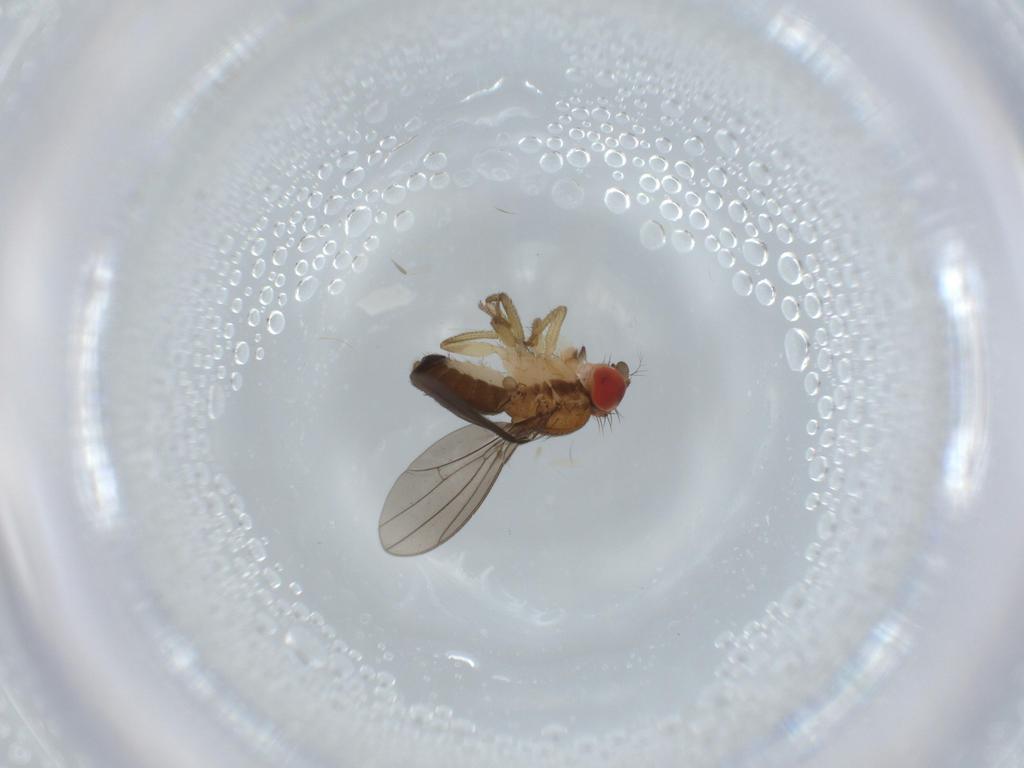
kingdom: Animalia
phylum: Arthropoda
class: Insecta
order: Diptera
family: Drosophilidae
